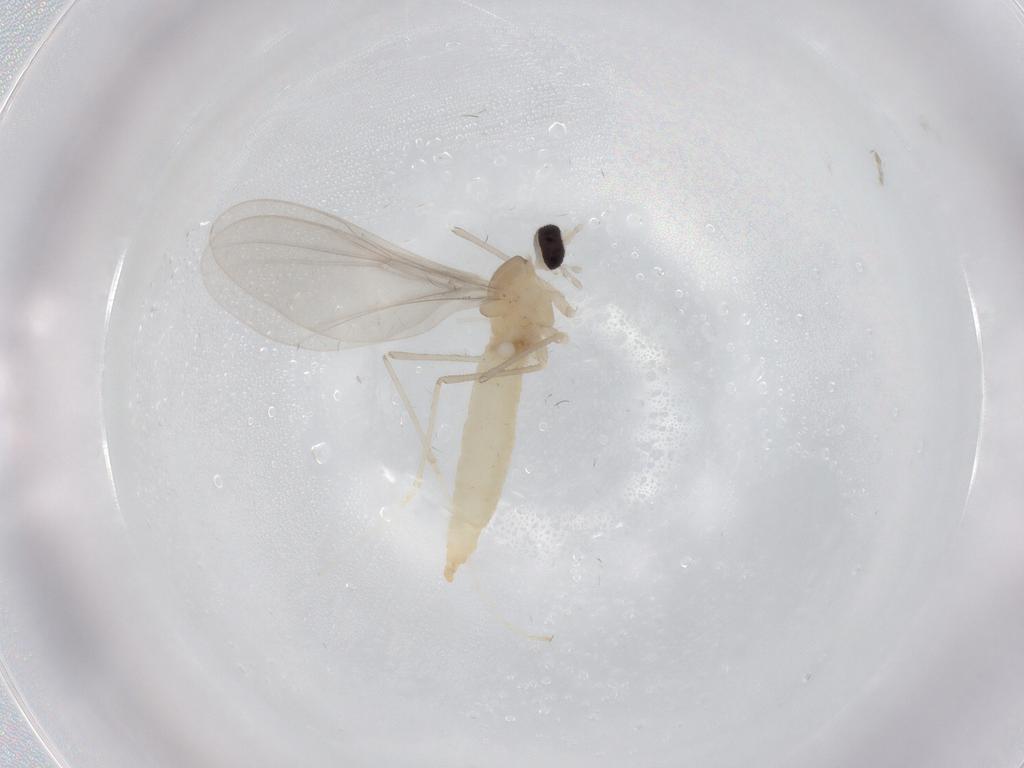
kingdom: Animalia
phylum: Arthropoda
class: Insecta
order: Diptera
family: Cecidomyiidae
